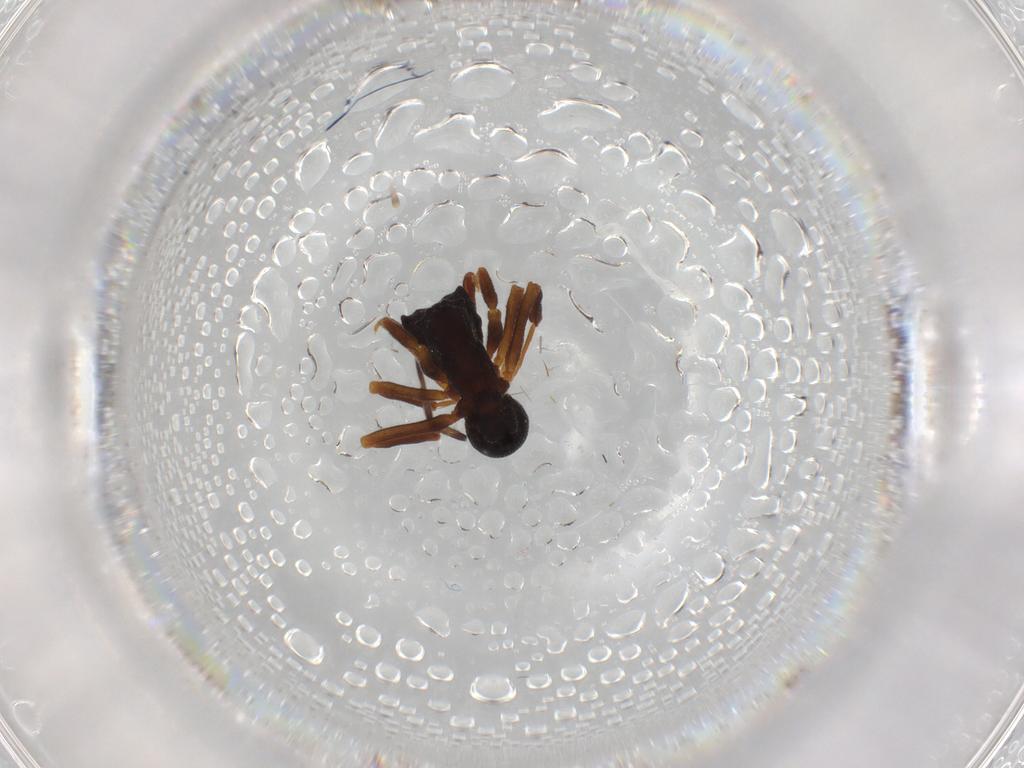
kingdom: Animalia
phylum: Arthropoda
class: Insecta
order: Hymenoptera
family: Formicidae
